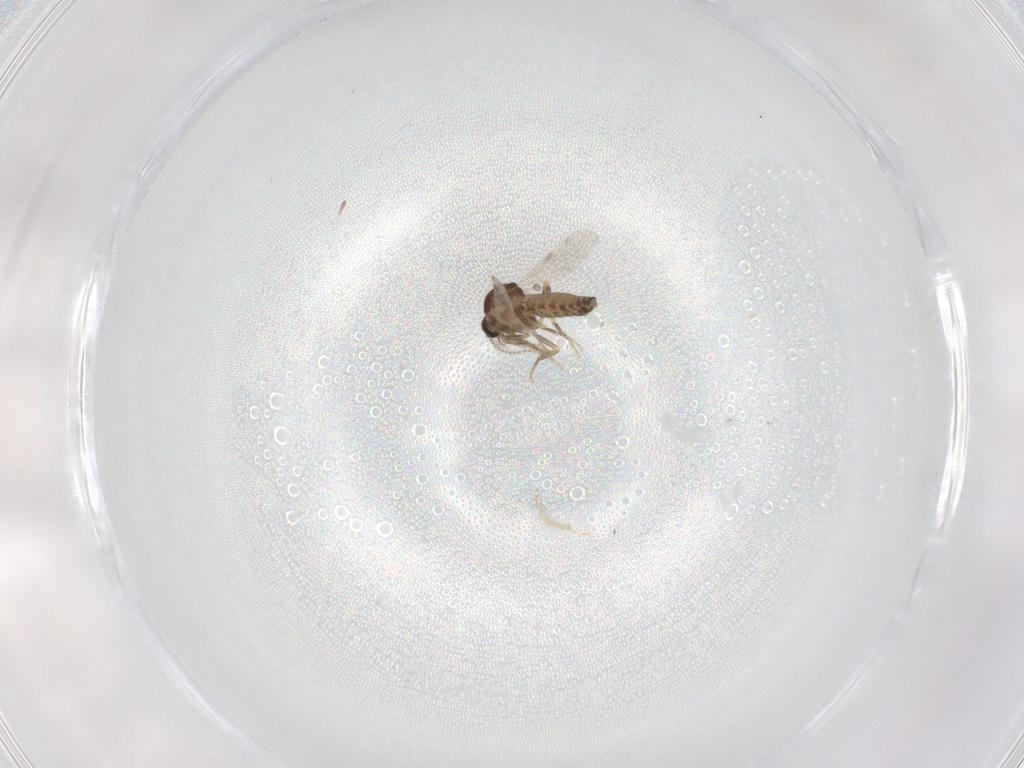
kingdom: Animalia
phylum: Arthropoda
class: Insecta
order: Diptera
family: Ceratopogonidae
